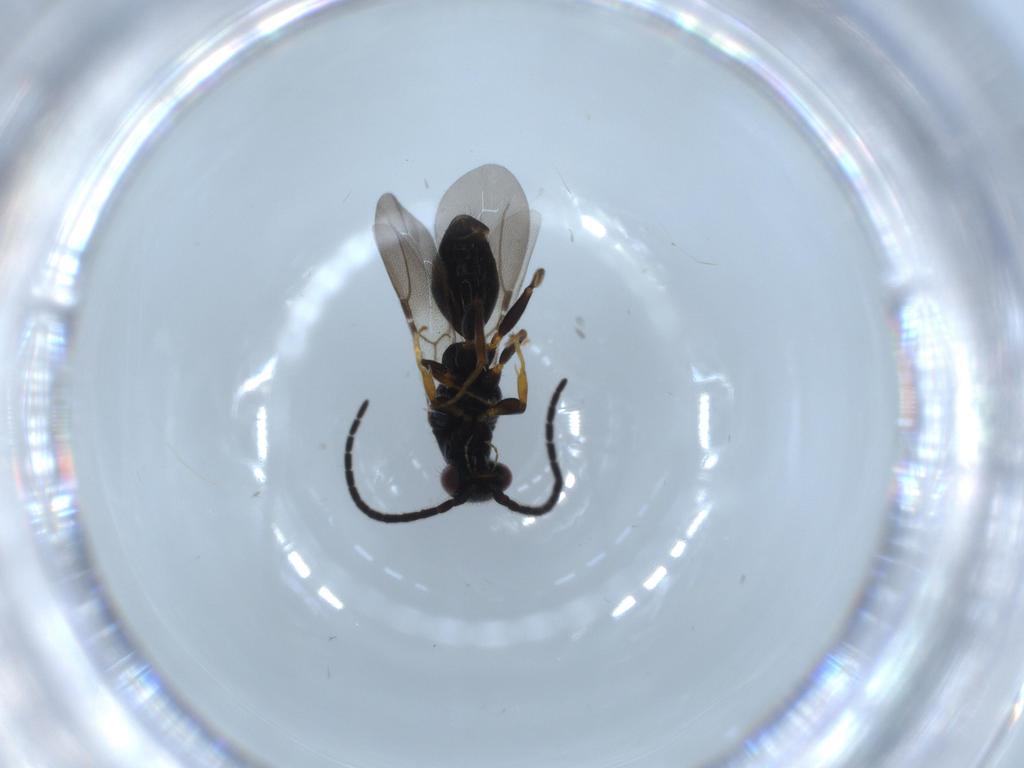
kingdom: Animalia
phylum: Arthropoda
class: Insecta
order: Hymenoptera
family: Bethylidae
